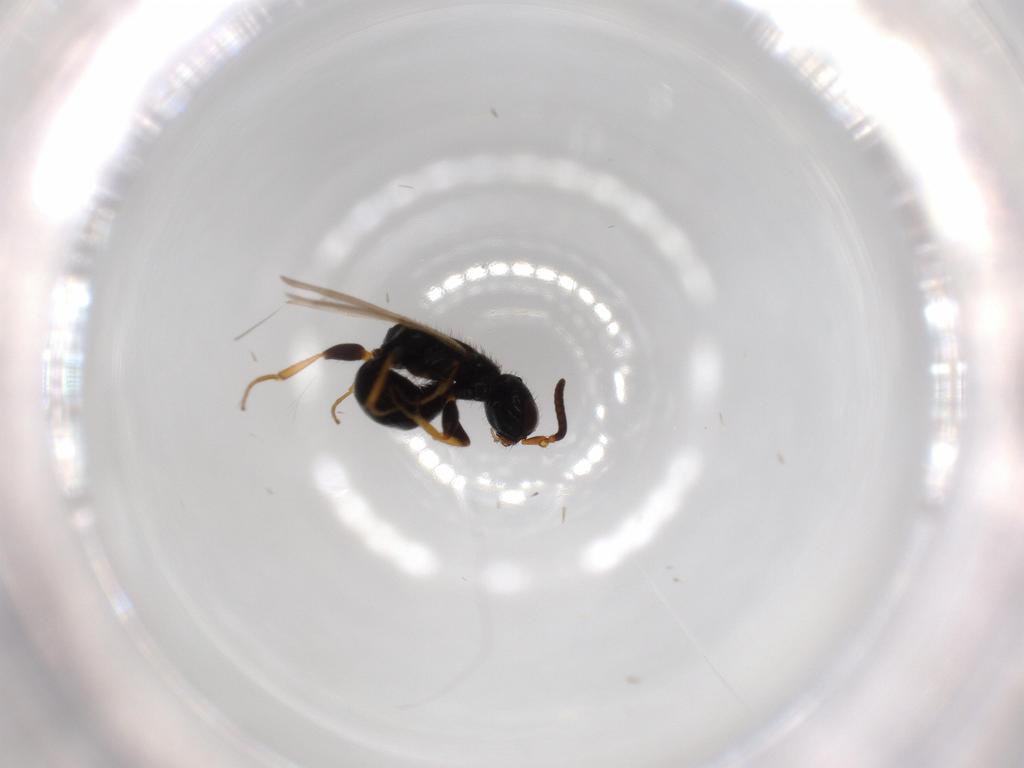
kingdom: Animalia
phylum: Arthropoda
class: Insecta
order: Hymenoptera
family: Bethylidae
